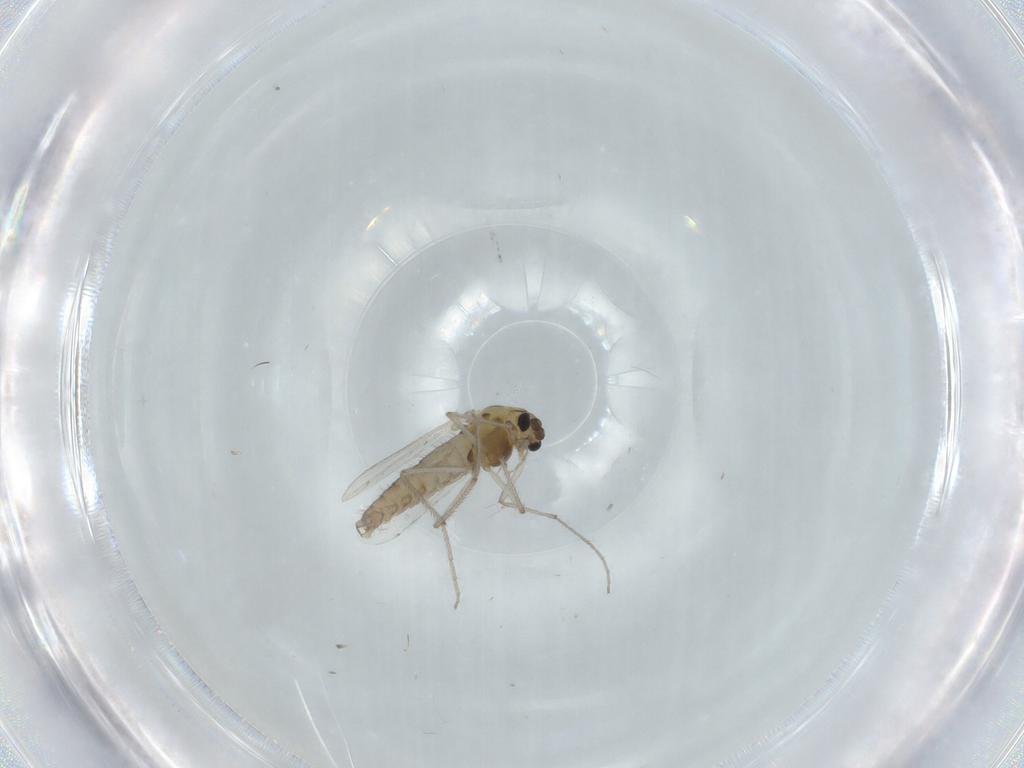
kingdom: Animalia
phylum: Arthropoda
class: Insecta
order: Diptera
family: Chironomidae
